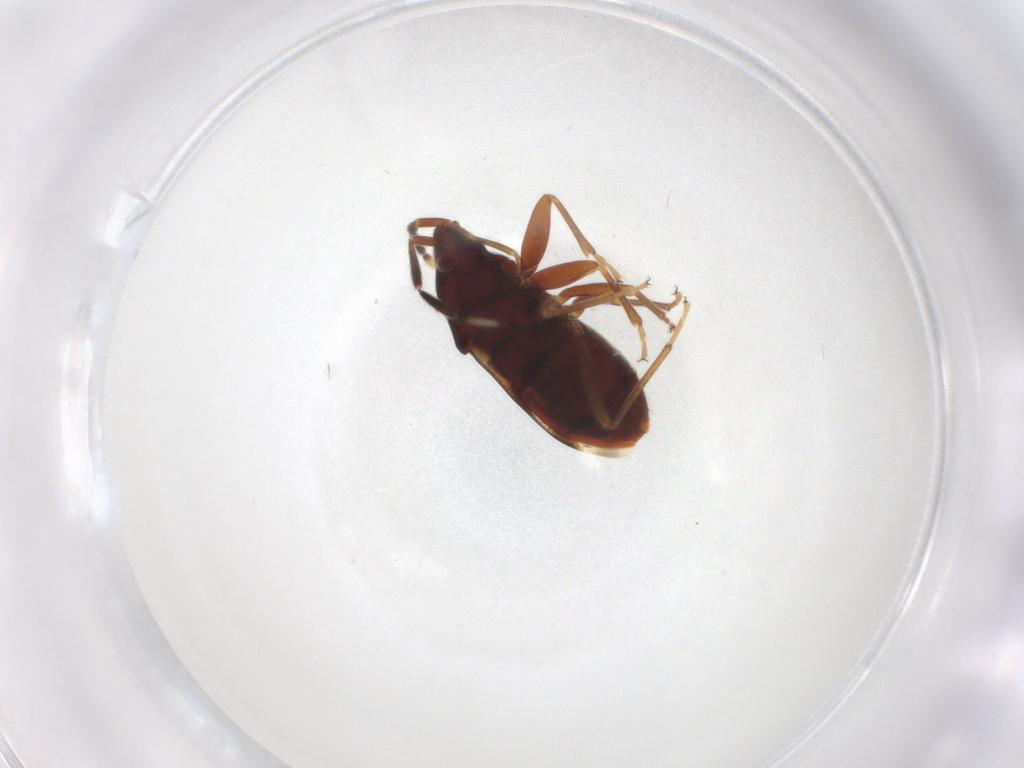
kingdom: Animalia
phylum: Arthropoda
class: Insecta
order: Hemiptera
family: Rhyparochromidae
